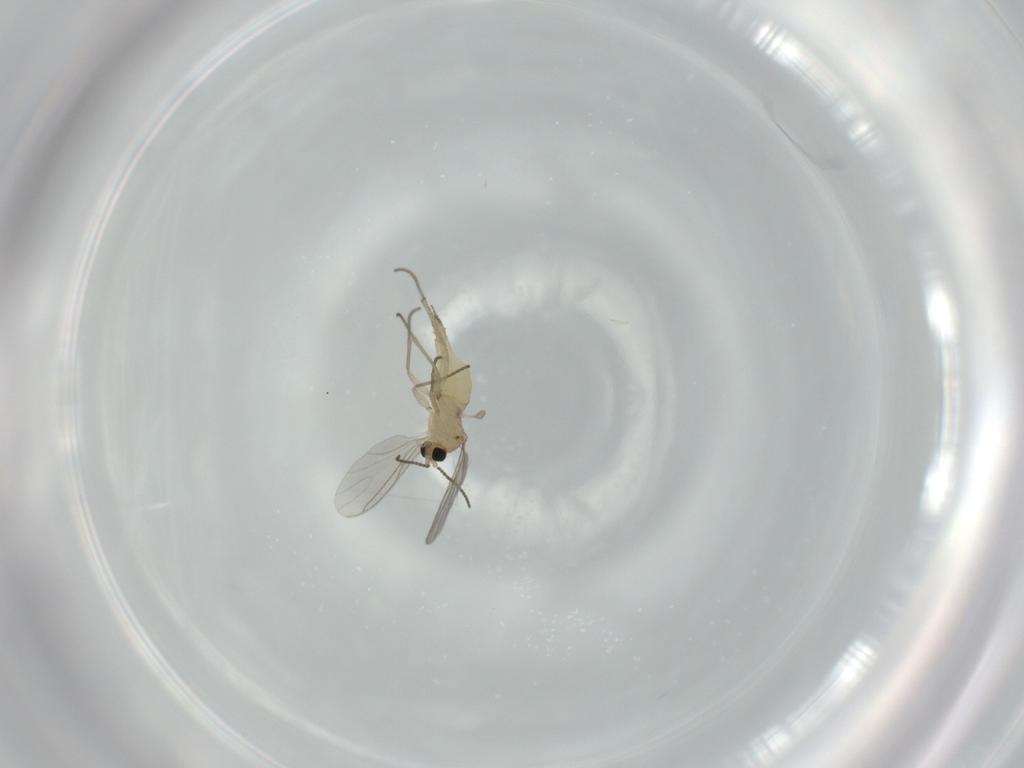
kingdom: Animalia
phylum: Arthropoda
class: Insecta
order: Diptera
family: Sciaridae
